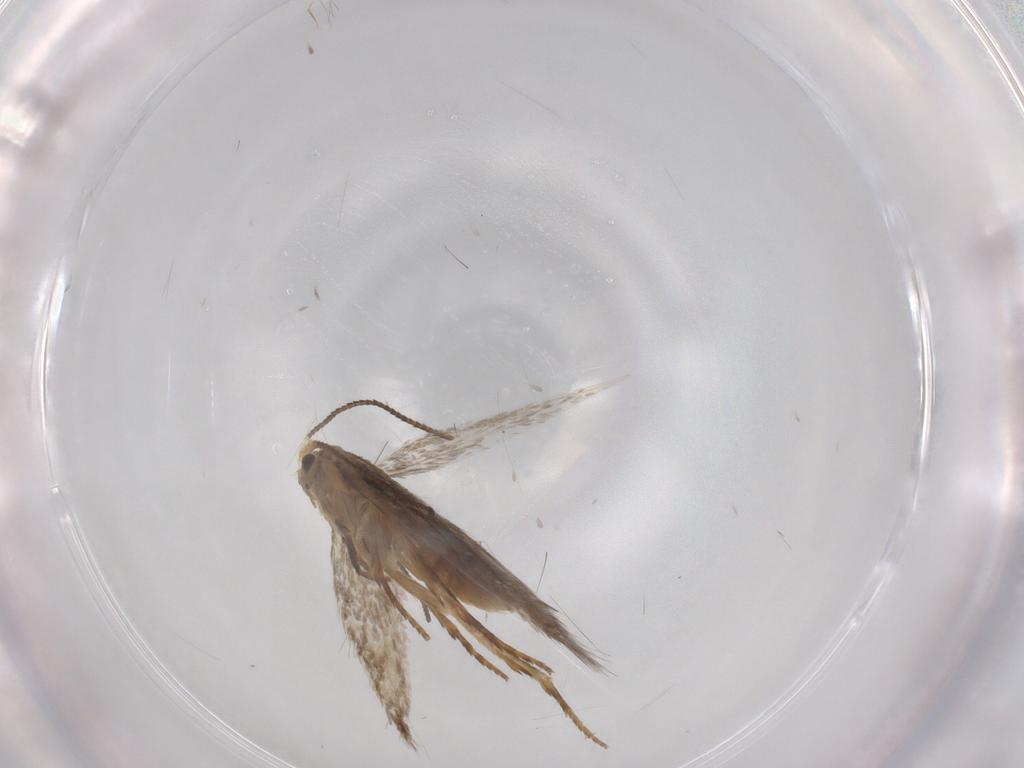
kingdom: Animalia
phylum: Arthropoda
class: Insecta
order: Lepidoptera
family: Nepticulidae
